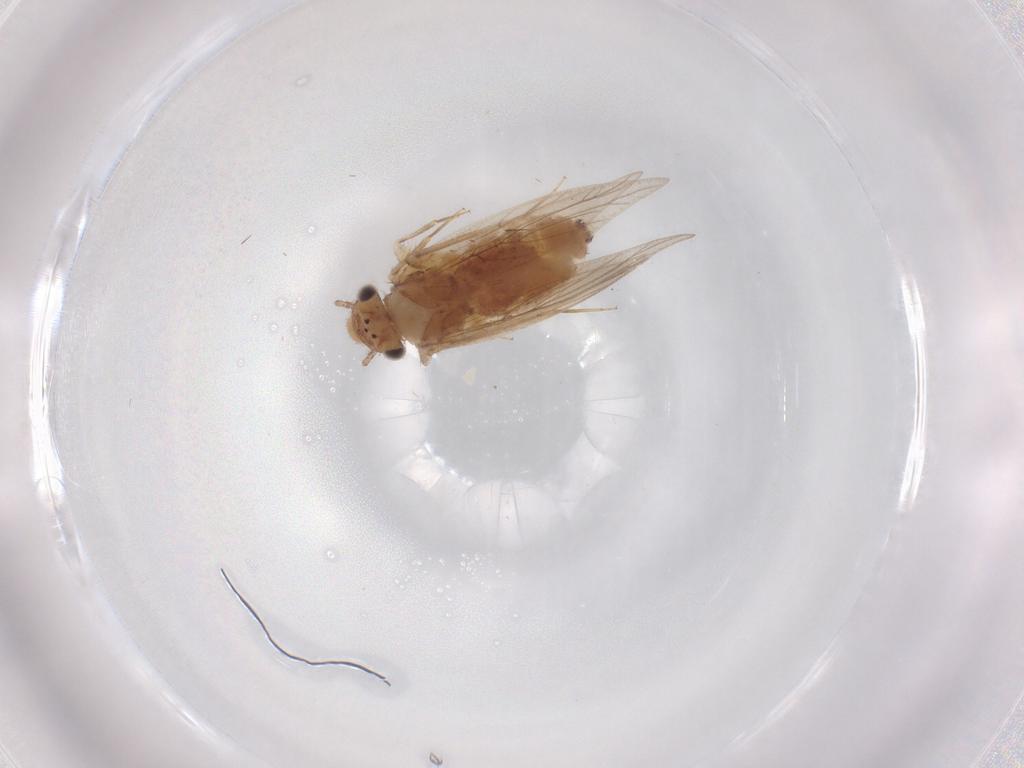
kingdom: Animalia
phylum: Arthropoda
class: Insecta
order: Psocodea
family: Lepidopsocidae
